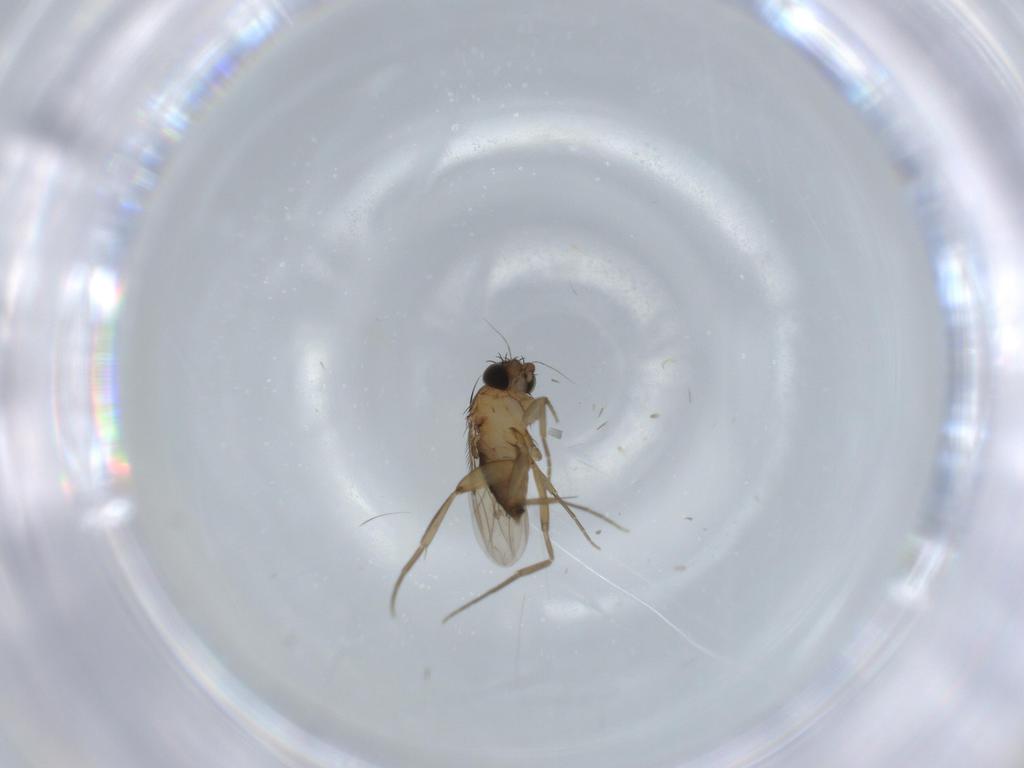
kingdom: Animalia
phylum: Arthropoda
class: Insecta
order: Diptera
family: Phoridae
